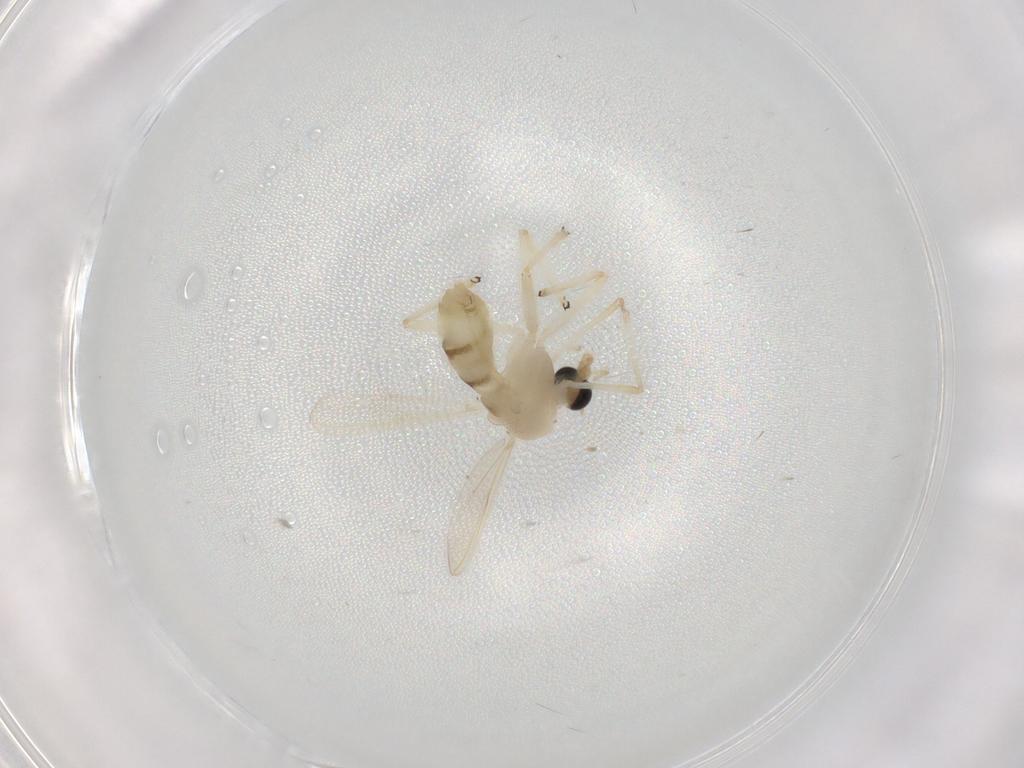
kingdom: Animalia
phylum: Arthropoda
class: Insecta
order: Diptera
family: Chironomidae
